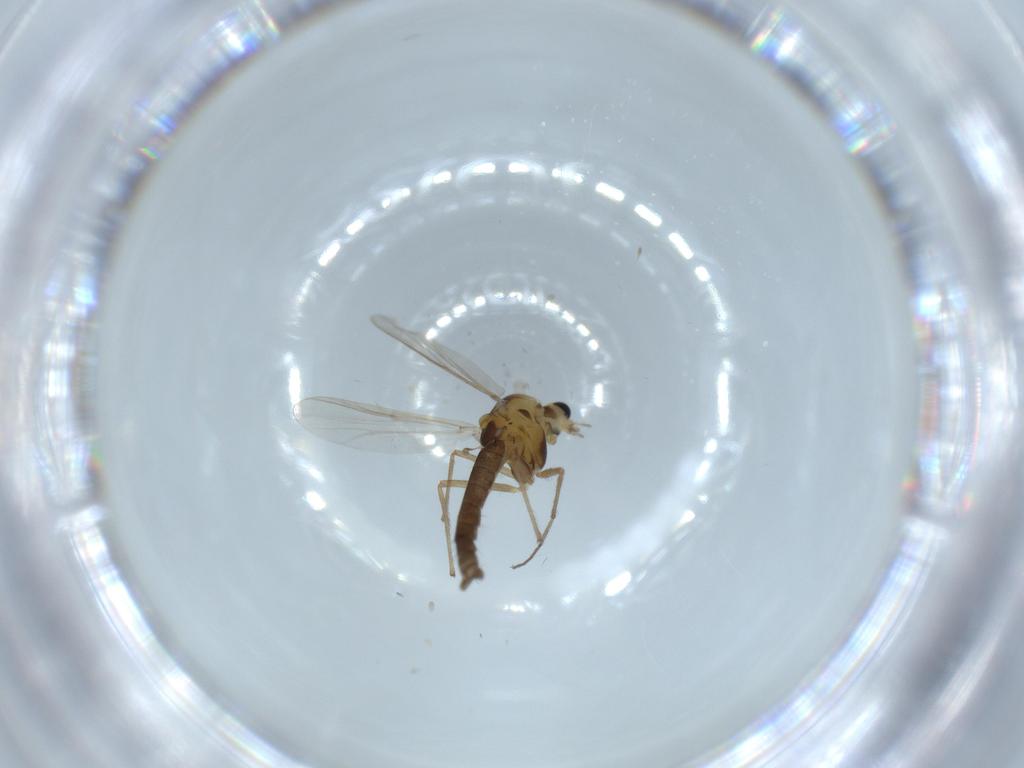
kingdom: Animalia
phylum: Arthropoda
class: Insecta
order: Diptera
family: Chironomidae
